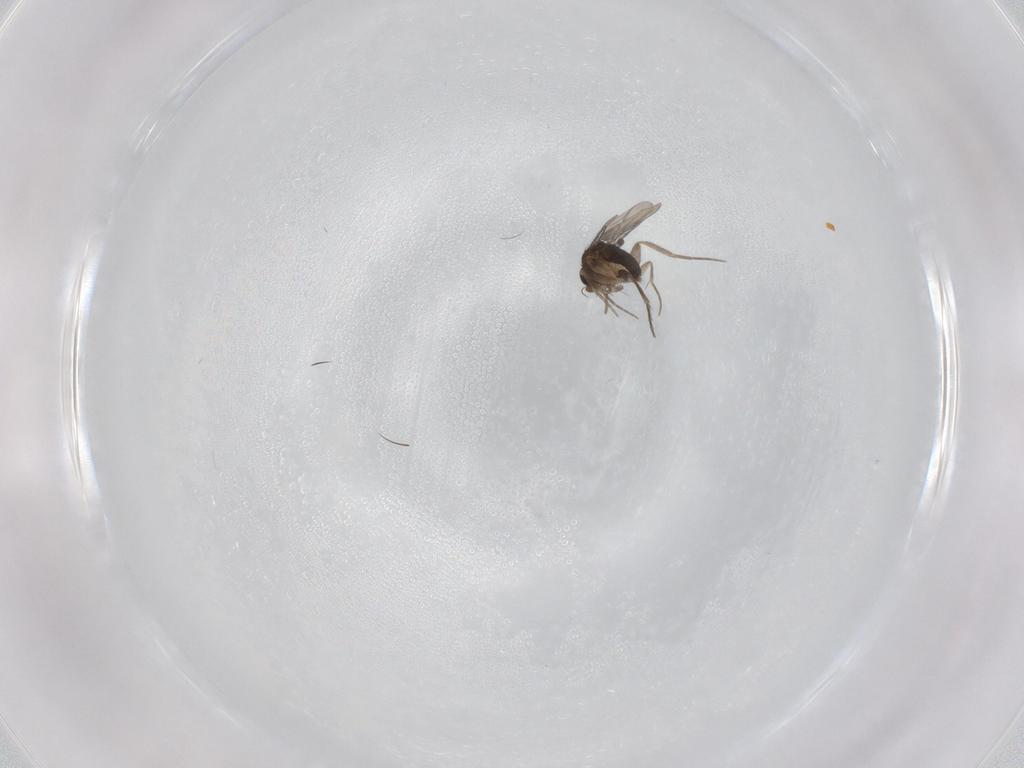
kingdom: Animalia
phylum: Arthropoda
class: Insecta
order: Diptera
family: Phoridae
